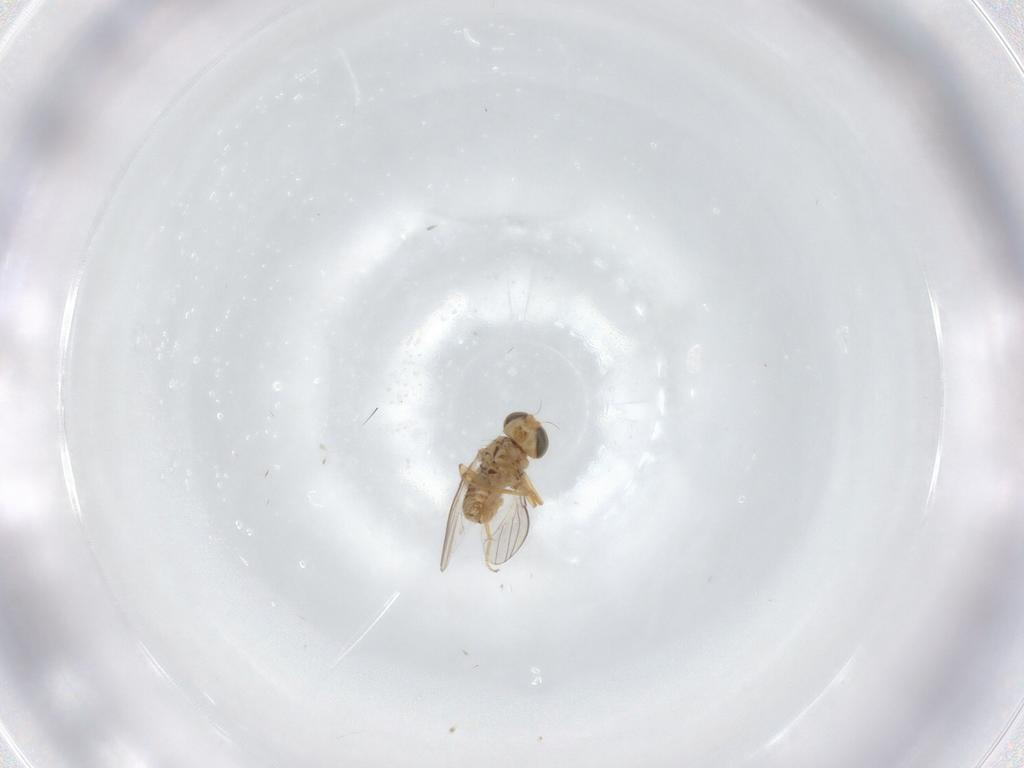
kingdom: Animalia
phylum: Arthropoda
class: Insecta
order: Diptera
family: Chyromyidae
